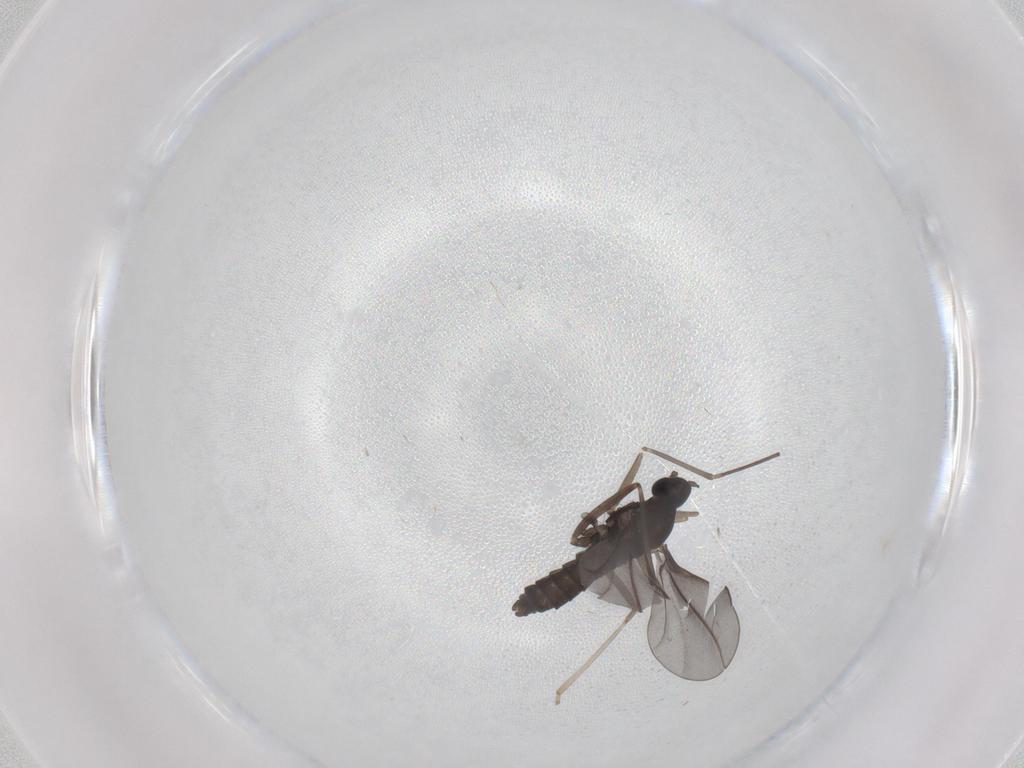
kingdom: Animalia
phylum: Arthropoda
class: Insecta
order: Diptera
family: Cecidomyiidae
